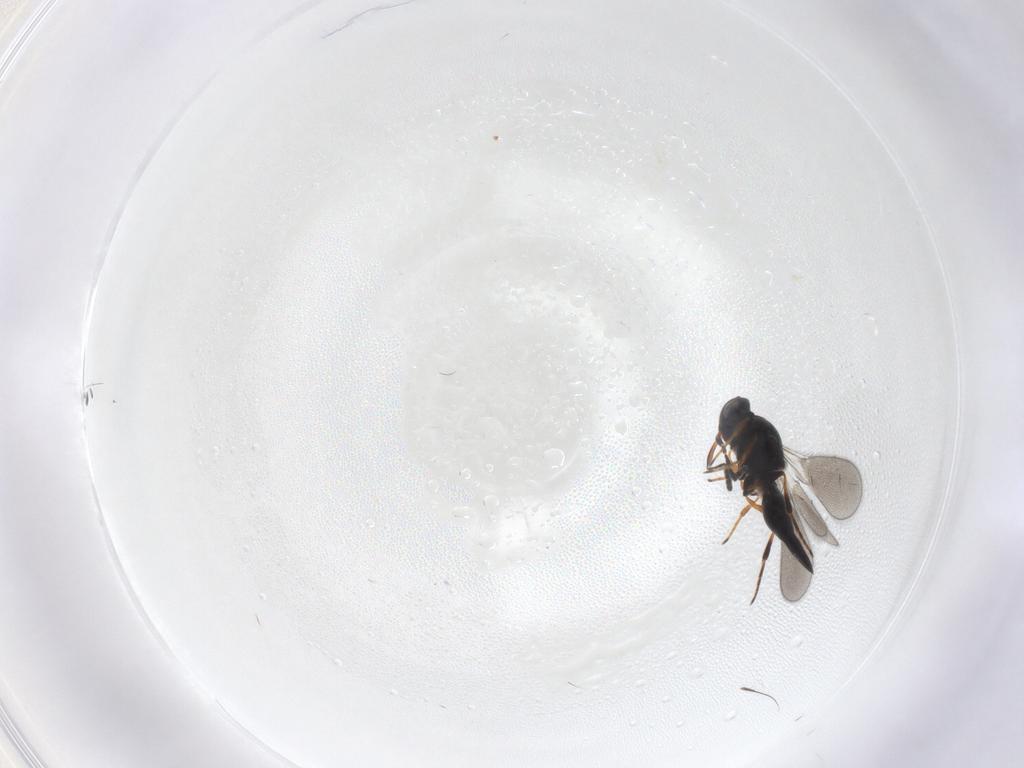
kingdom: Animalia
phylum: Arthropoda
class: Insecta
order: Hymenoptera
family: Platygastridae
